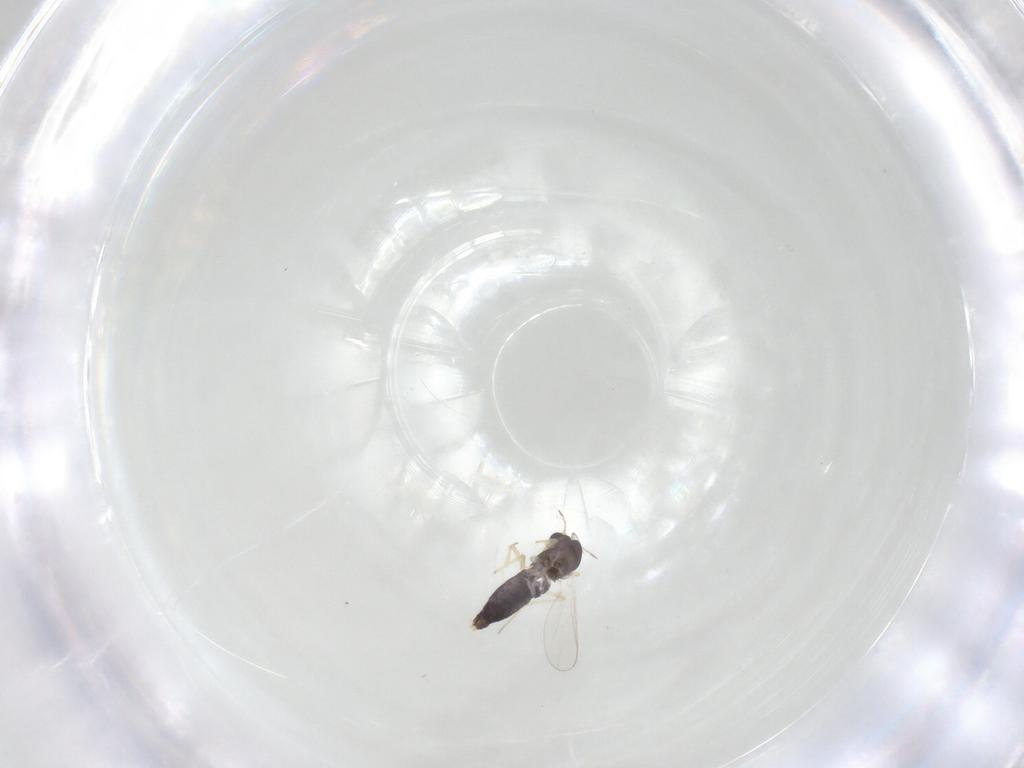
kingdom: Animalia
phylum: Arthropoda
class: Insecta
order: Diptera
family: Chironomidae
